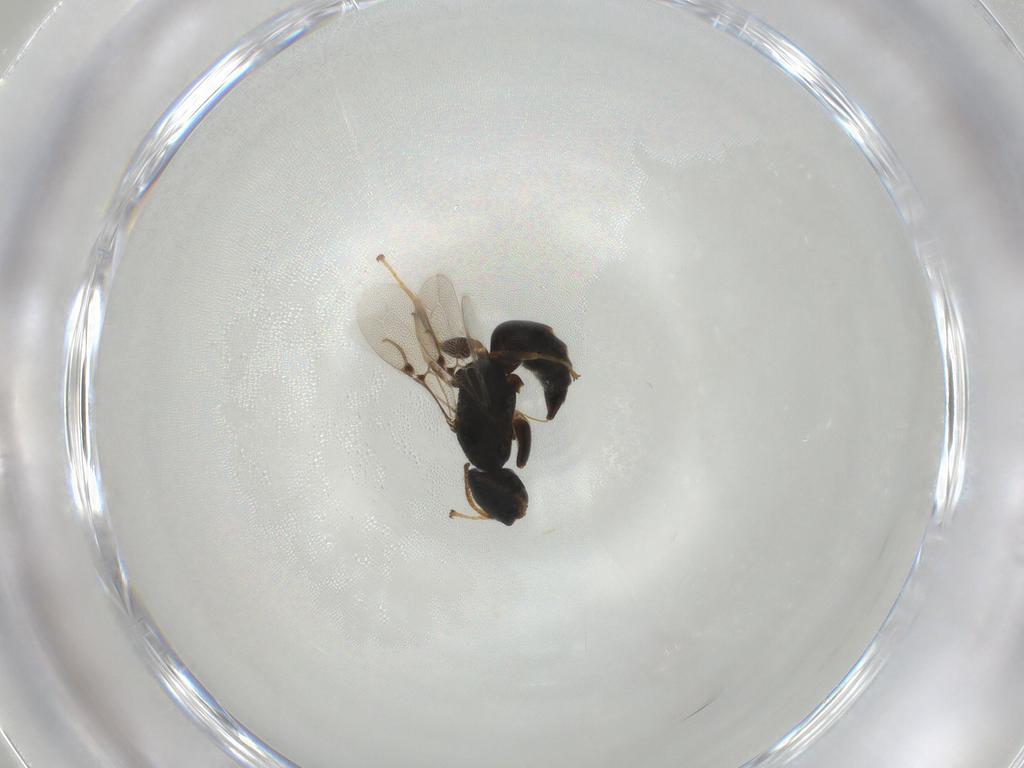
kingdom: Animalia
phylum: Arthropoda
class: Insecta
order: Hymenoptera
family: Bethylidae
